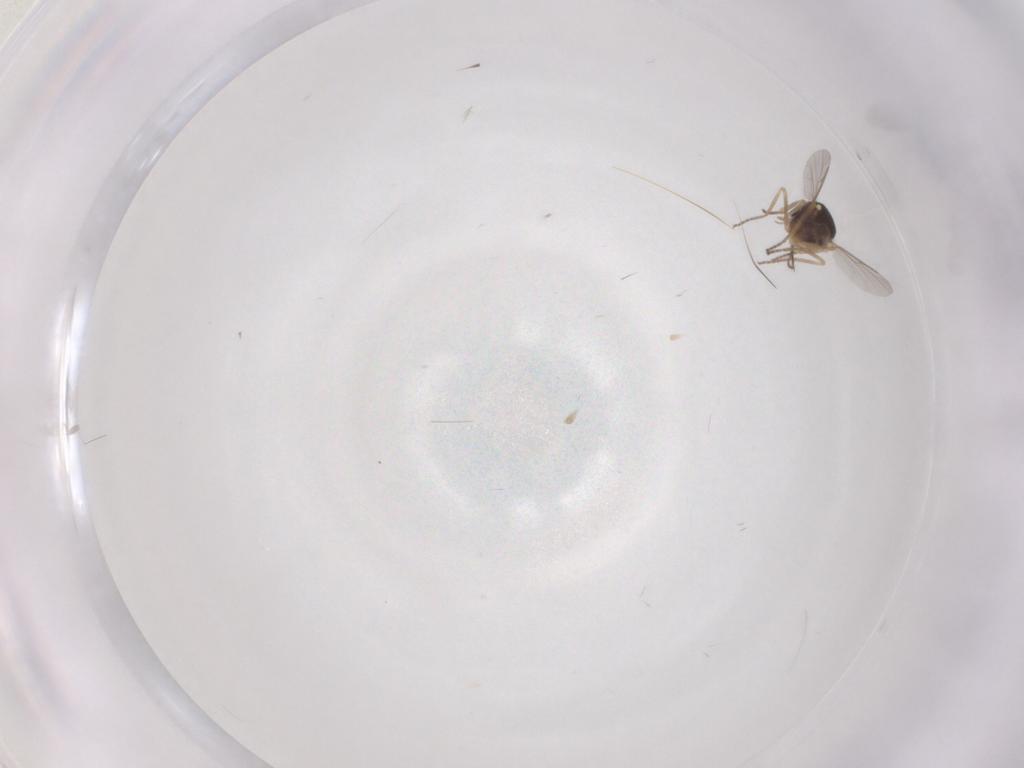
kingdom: Animalia
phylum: Arthropoda
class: Insecta
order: Diptera
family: Ceratopogonidae
